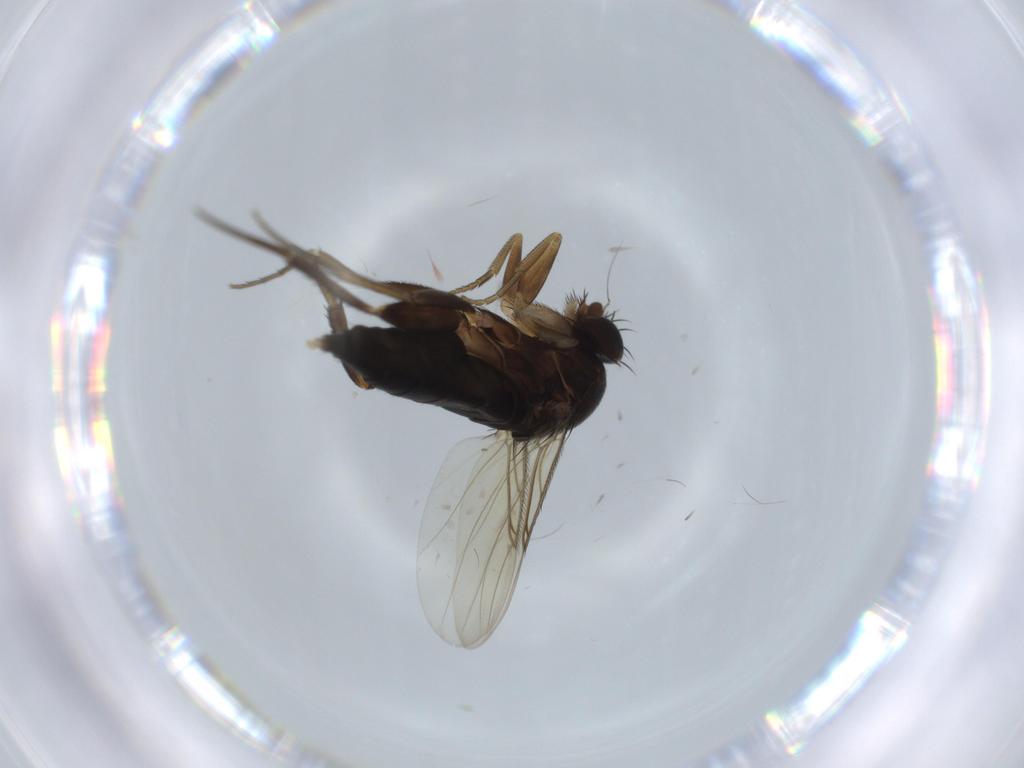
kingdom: Animalia
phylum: Arthropoda
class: Insecta
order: Diptera
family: Phoridae
